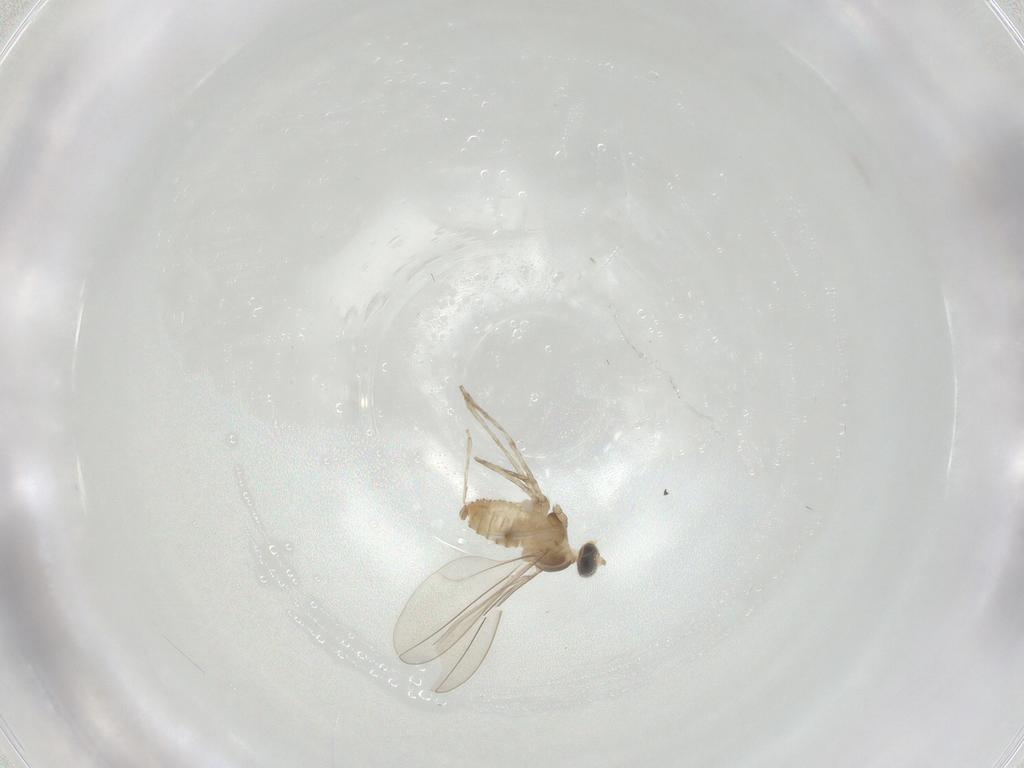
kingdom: Animalia
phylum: Arthropoda
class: Insecta
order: Diptera
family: Cecidomyiidae
